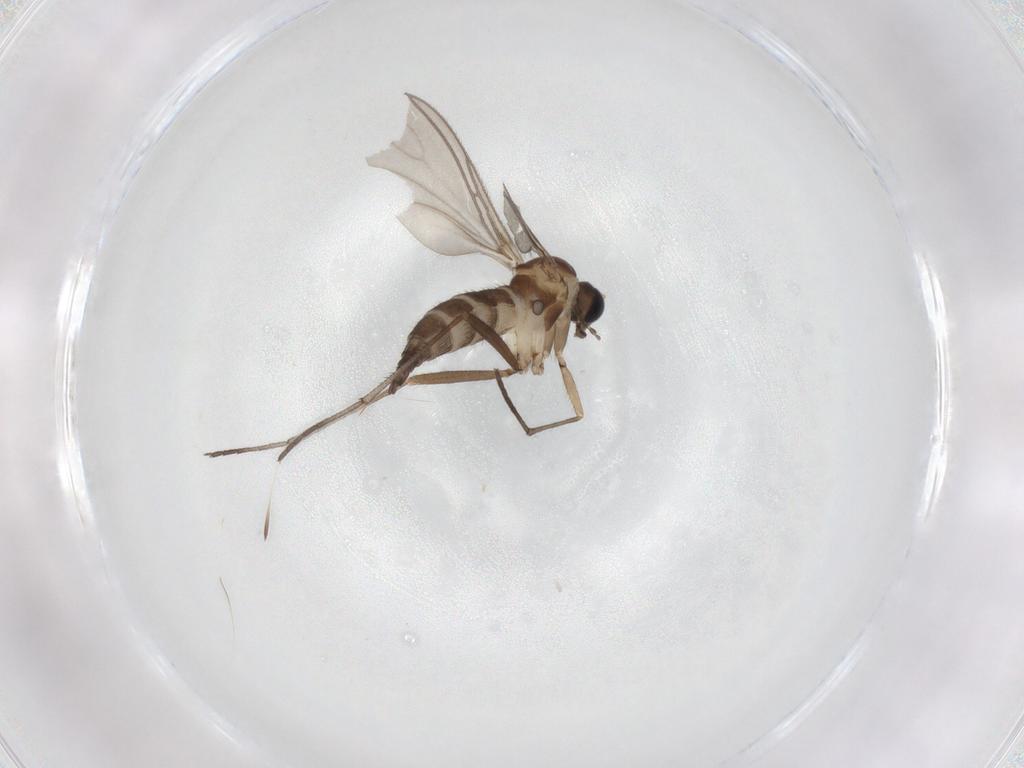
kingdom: Animalia
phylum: Arthropoda
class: Insecta
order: Diptera
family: Sciaridae
